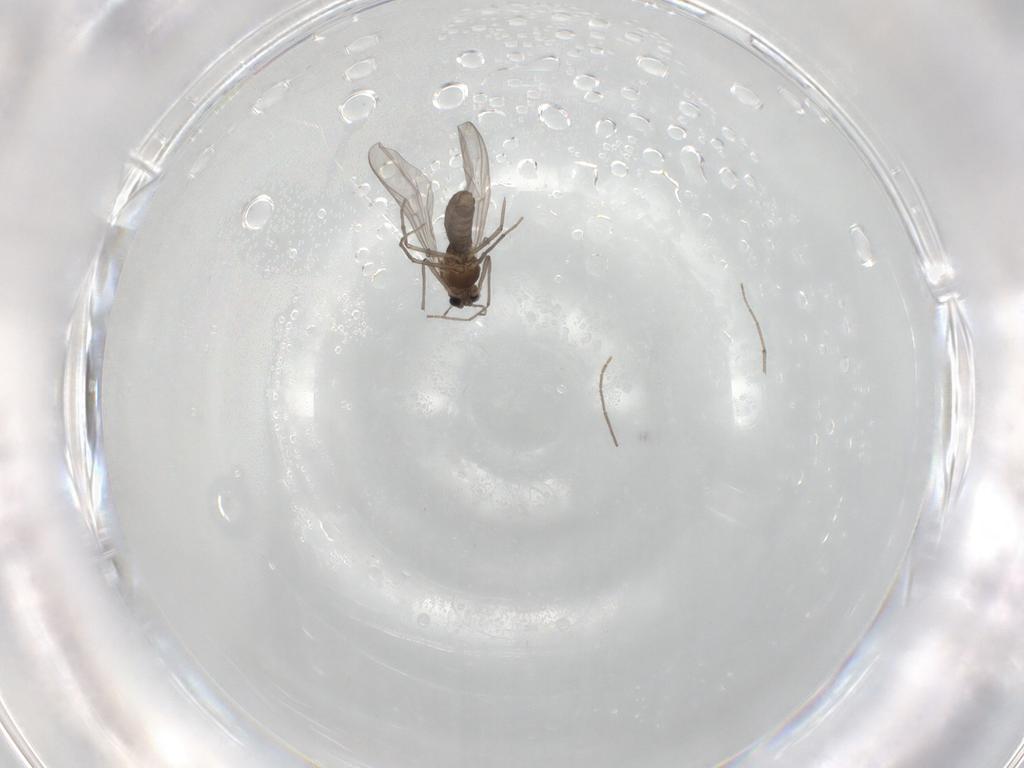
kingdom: Animalia
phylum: Arthropoda
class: Insecta
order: Diptera
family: Chironomidae
